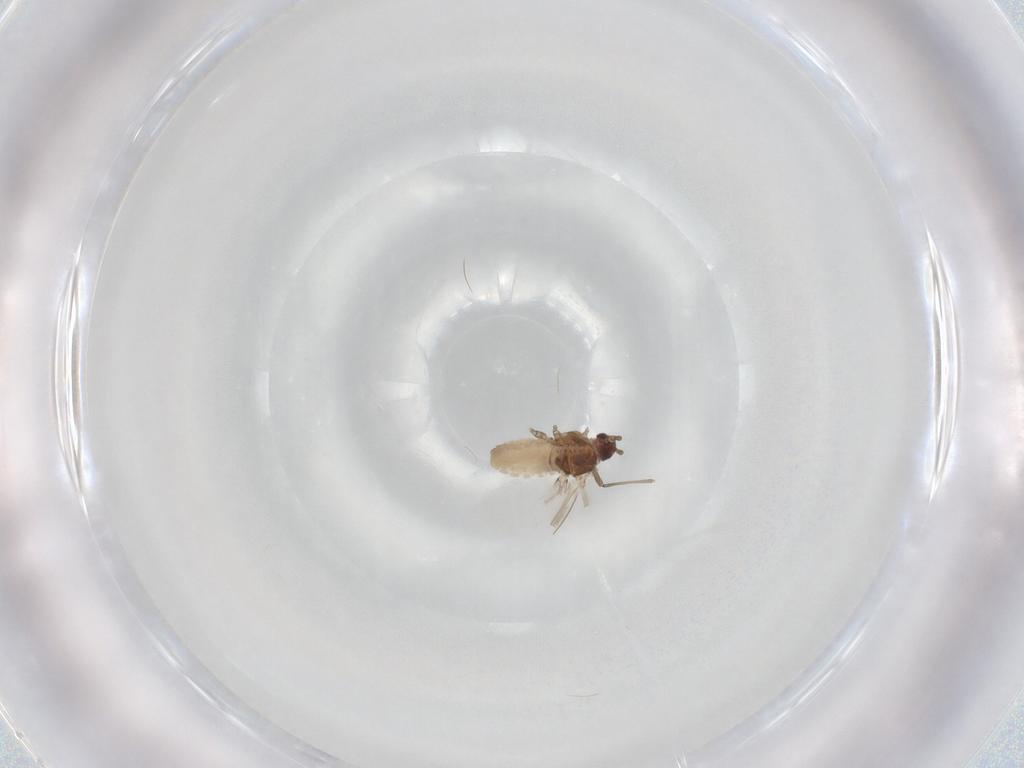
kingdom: Animalia
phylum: Arthropoda
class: Insecta
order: Hemiptera
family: Aphididae
